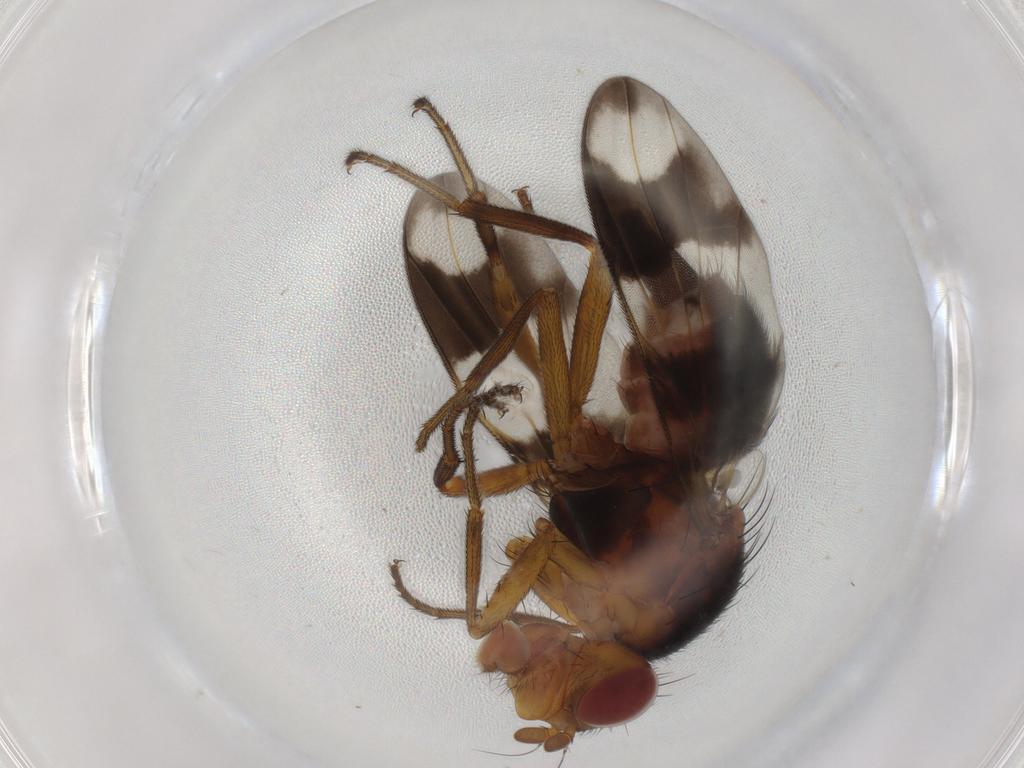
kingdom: Animalia
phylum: Arthropoda
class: Insecta
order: Diptera
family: Richardiidae
